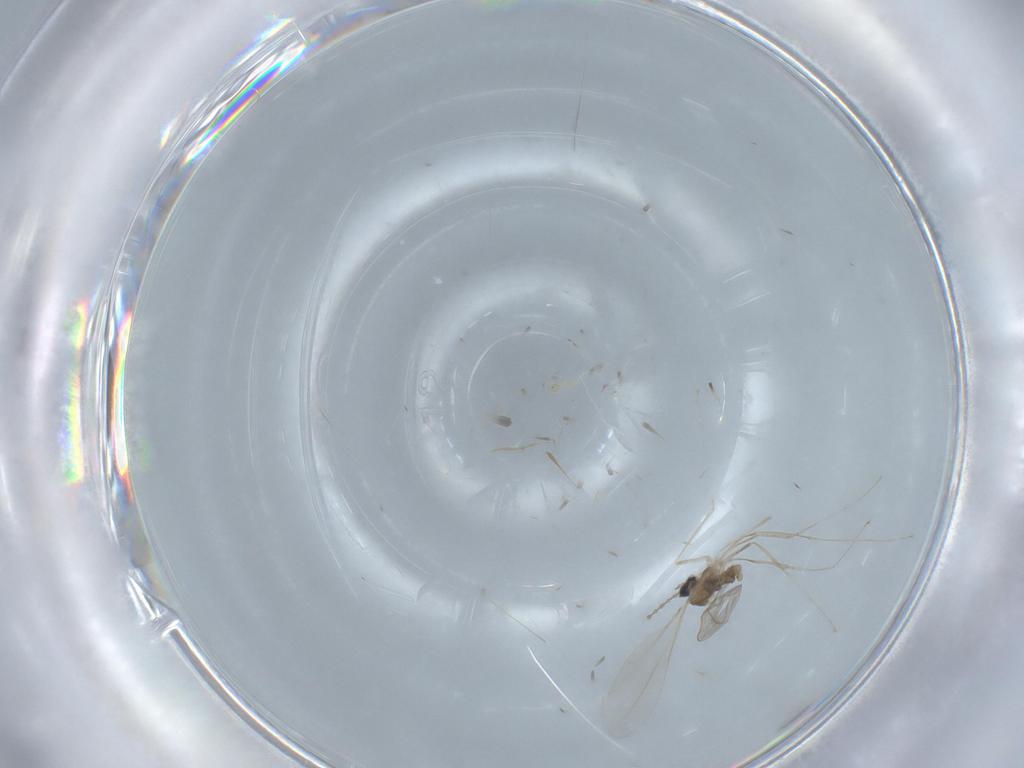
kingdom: Animalia
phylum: Arthropoda
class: Insecta
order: Diptera
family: Cecidomyiidae
